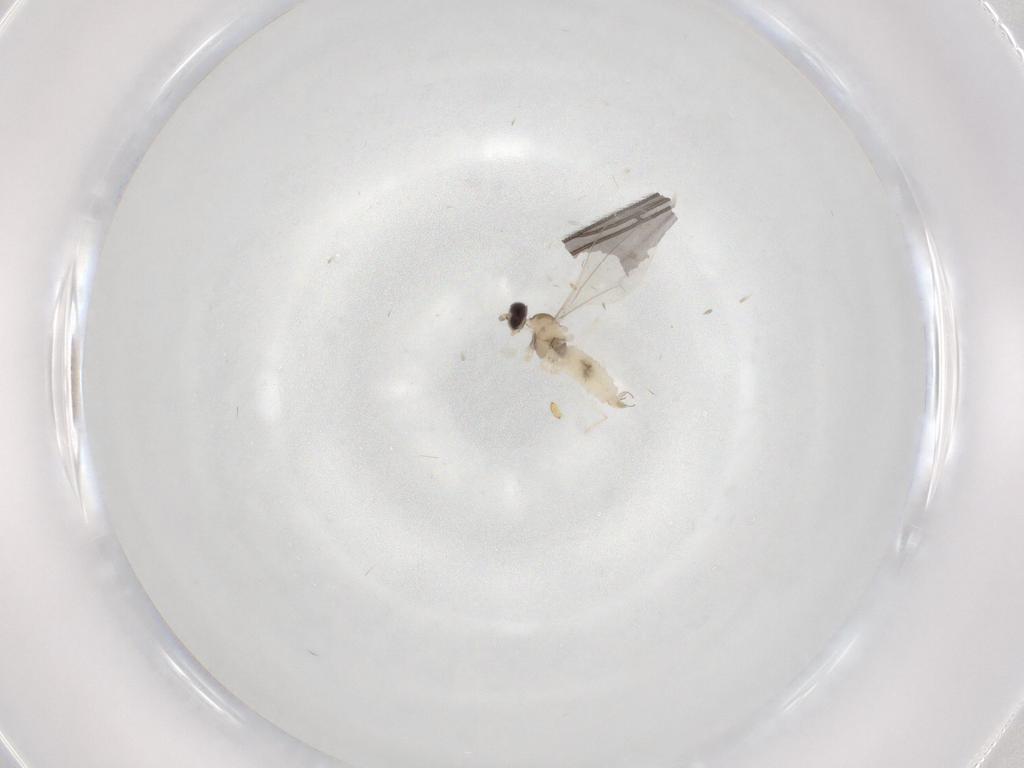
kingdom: Animalia
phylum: Arthropoda
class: Insecta
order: Diptera
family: Cecidomyiidae
